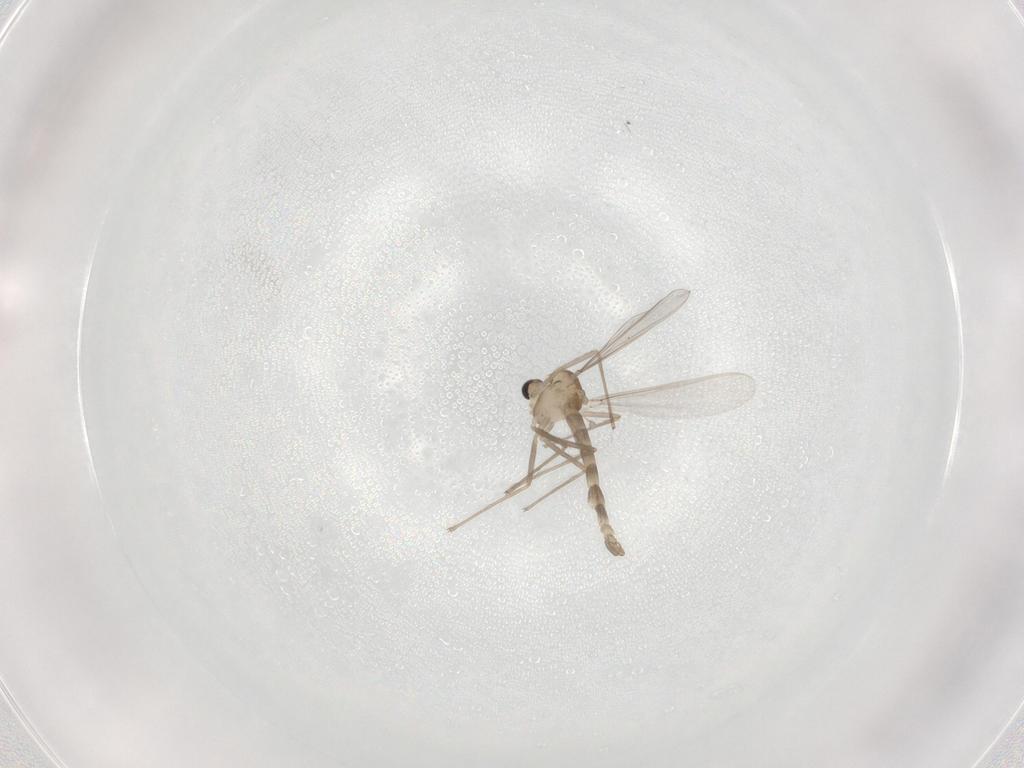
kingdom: Animalia
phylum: Arthropoda
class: Insecta
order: Diptera
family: Chironomidae
